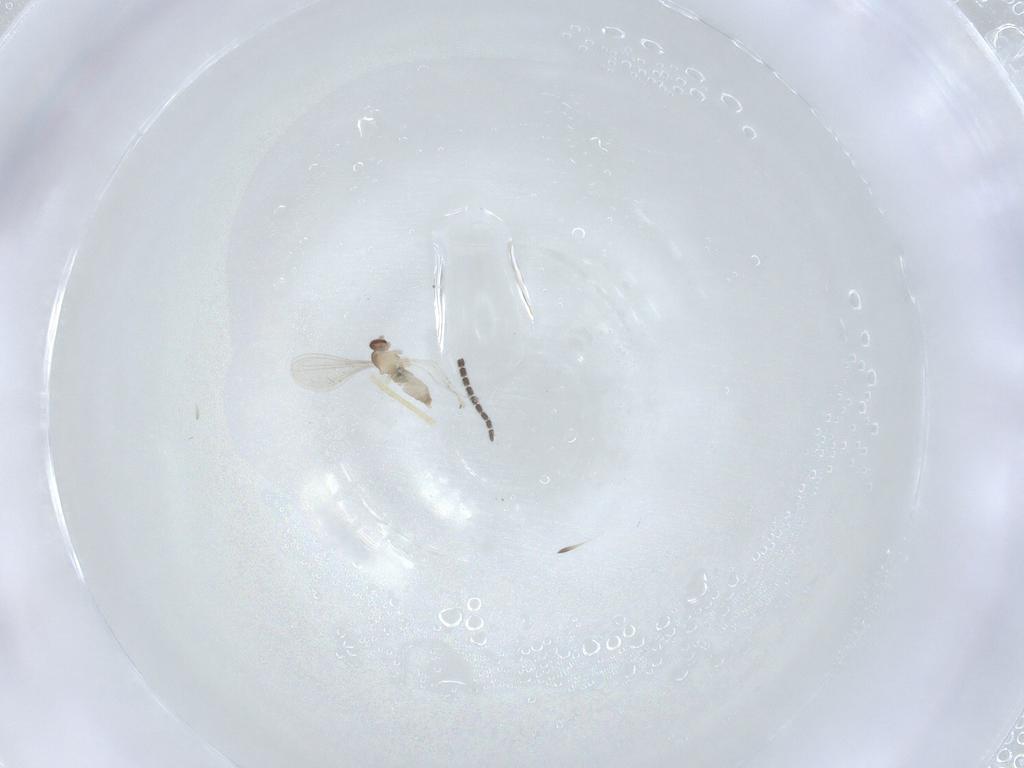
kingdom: Animalia
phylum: Arthropoda
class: Insecta
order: Diptera
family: Cecidomyiidae
